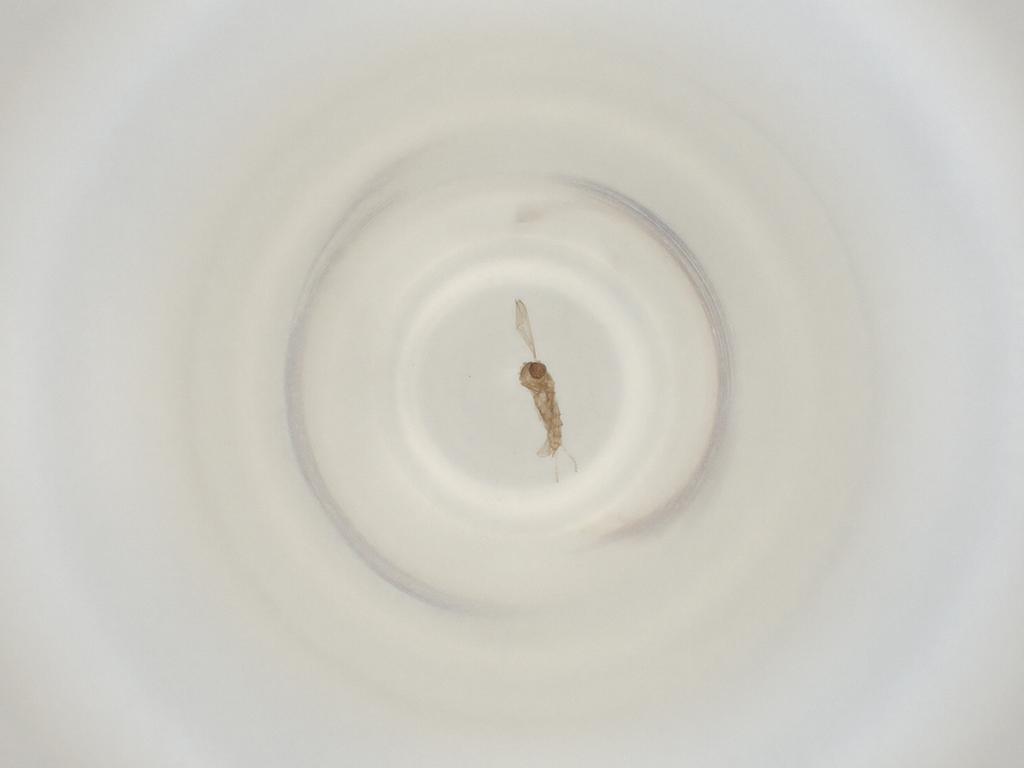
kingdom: Animalia
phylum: Arthropoda
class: Insecta
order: Diptera
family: Cecidomyiidae
